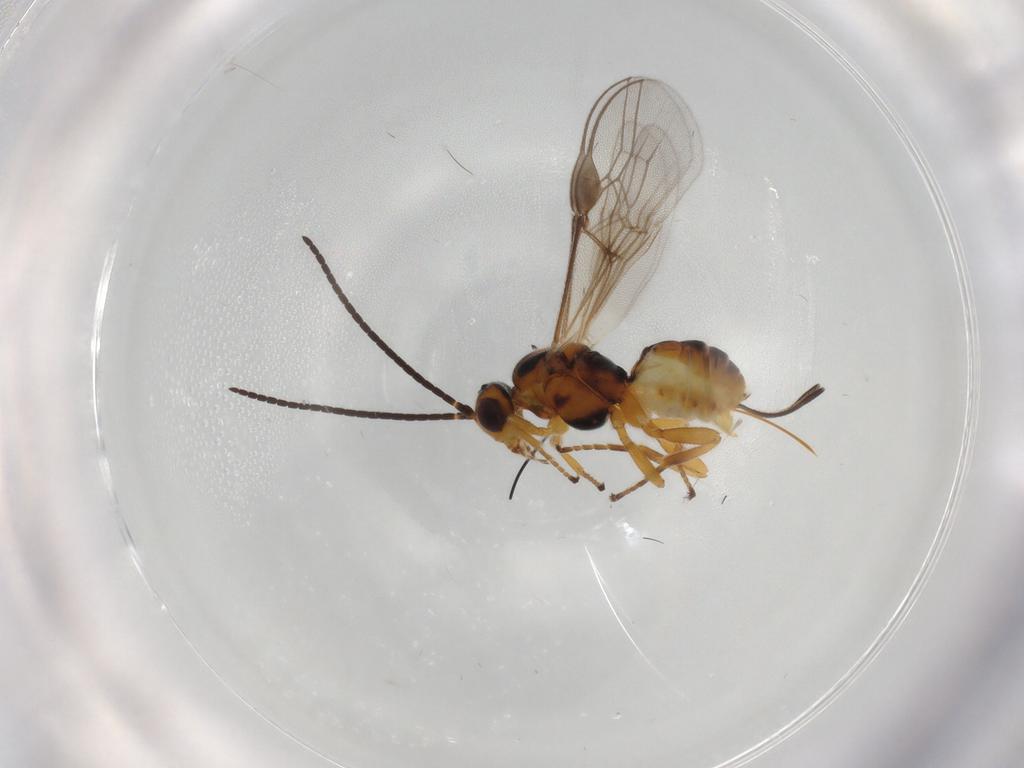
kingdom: Animalia
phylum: Arthropoda
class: Insecta
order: Hymenoptera
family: Braconidae
